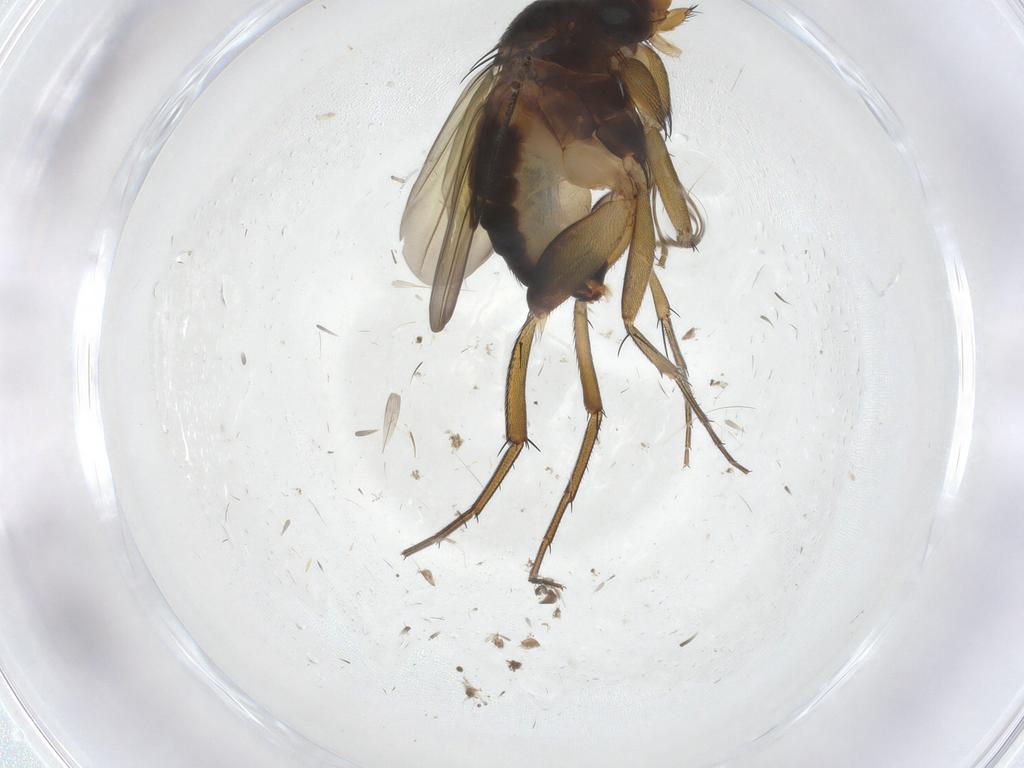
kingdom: Animalia
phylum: Arthropoda
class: Insecta
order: Diptera
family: Phoridae
